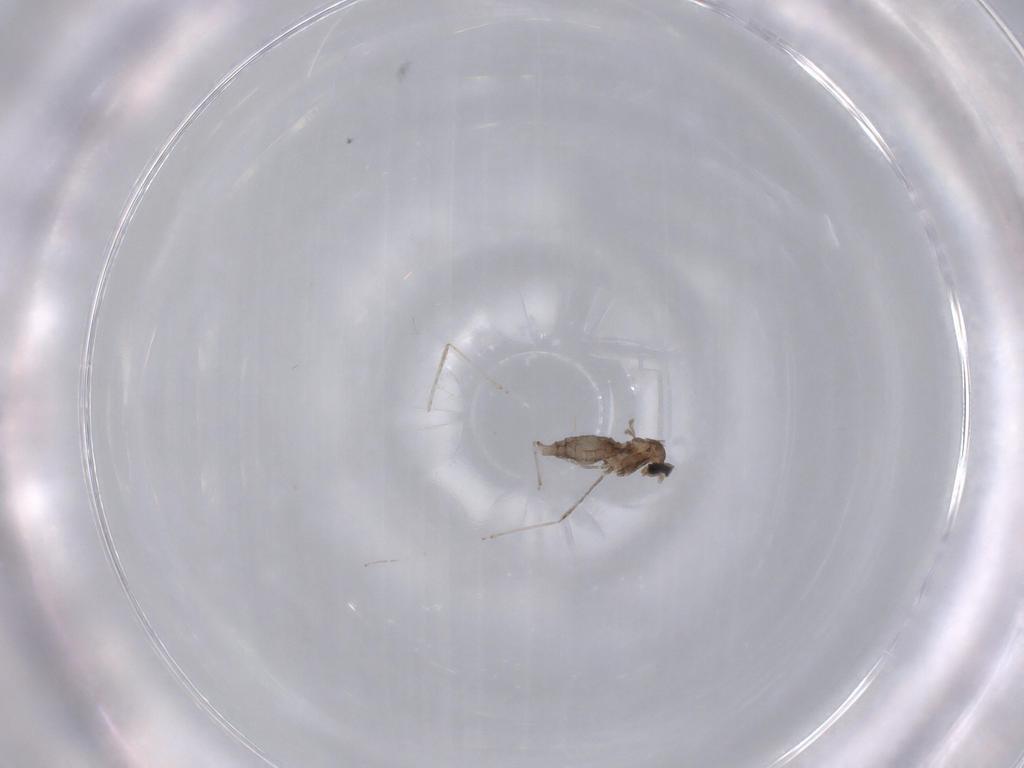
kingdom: Animalia
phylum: Arthropoda
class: Insecta
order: Diptera
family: Cecidomyiidae
